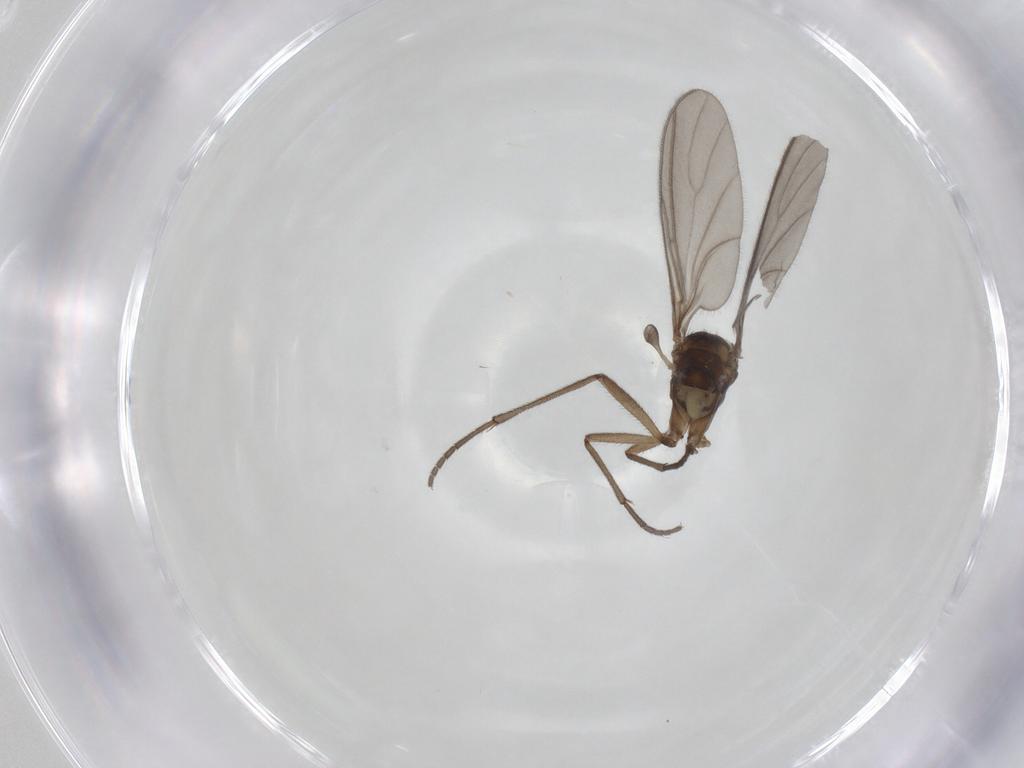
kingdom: Animalia
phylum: Arthropoda
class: Insecta
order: Diptera
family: Sciaridae
